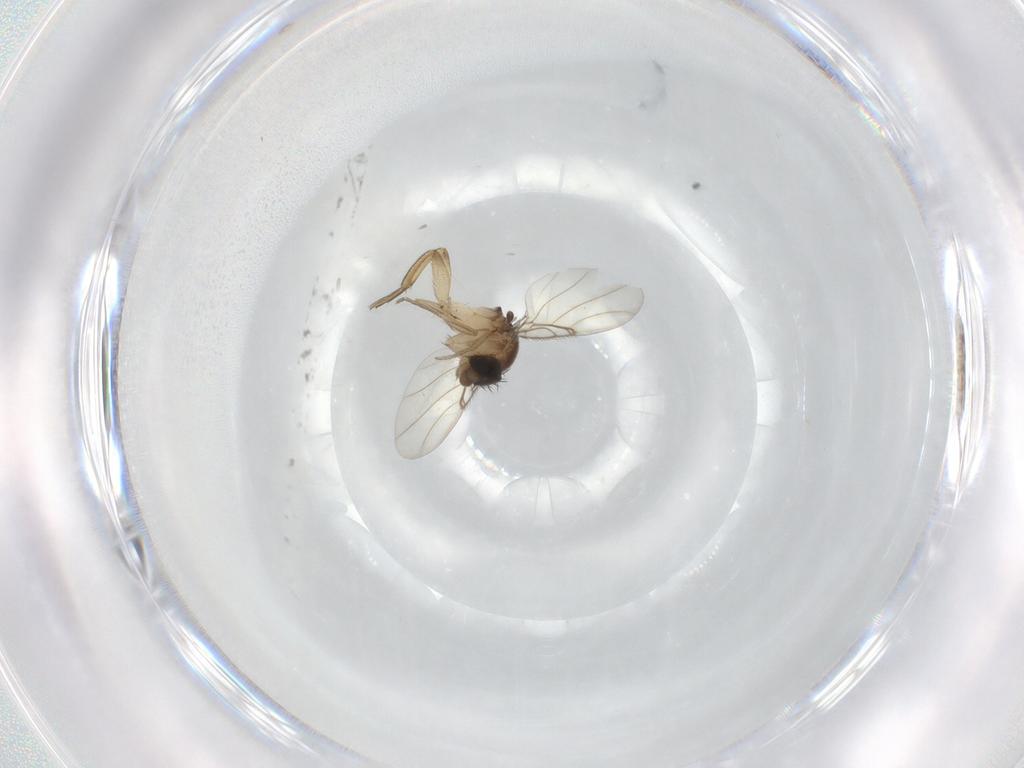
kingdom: Animalia
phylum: Arthropoda
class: Insecta
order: Diptera
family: Phoridae
